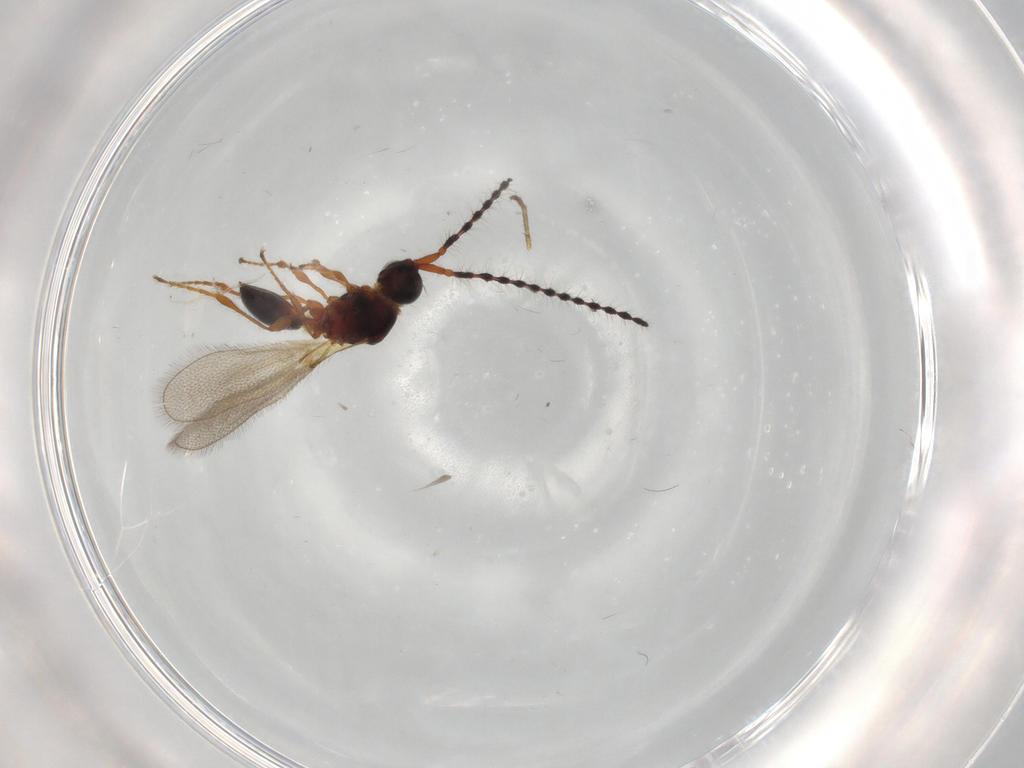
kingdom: Animalia
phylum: Arthropoda
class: Insecta
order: Hymenoptera
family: Diapriidae
